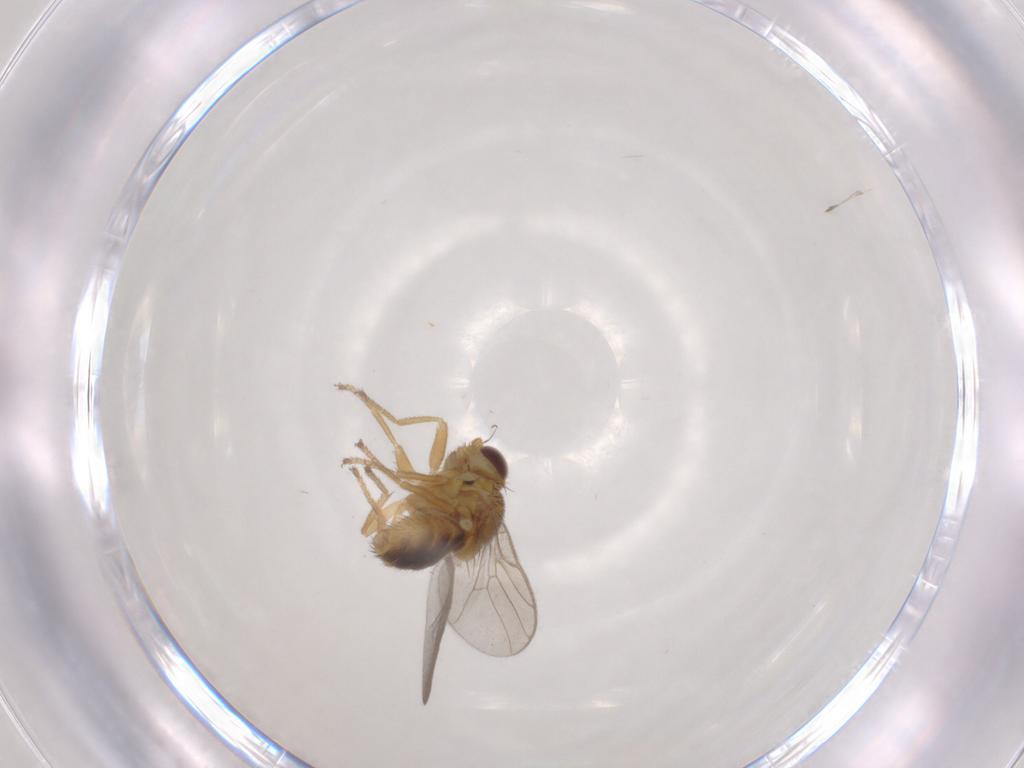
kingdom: Animalia
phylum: Arthropoda
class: Insecta
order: Diptera
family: Chloropidae
